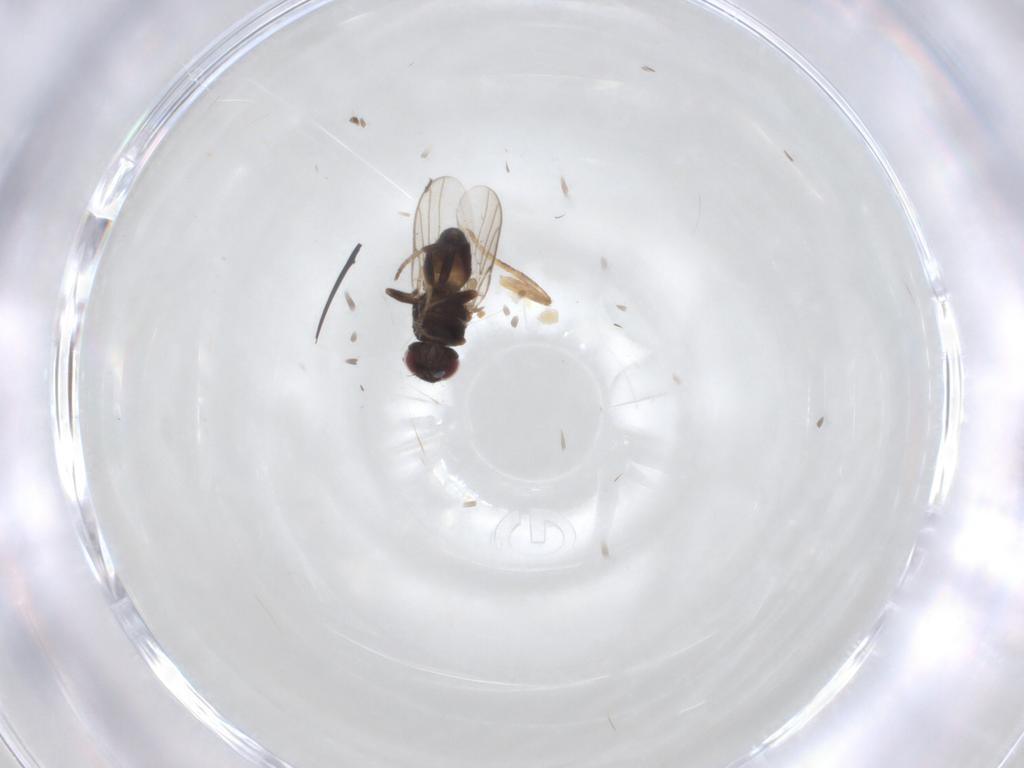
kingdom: Animalia
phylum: Arthropoda
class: Insecta
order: Diptera
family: Chloropidae
